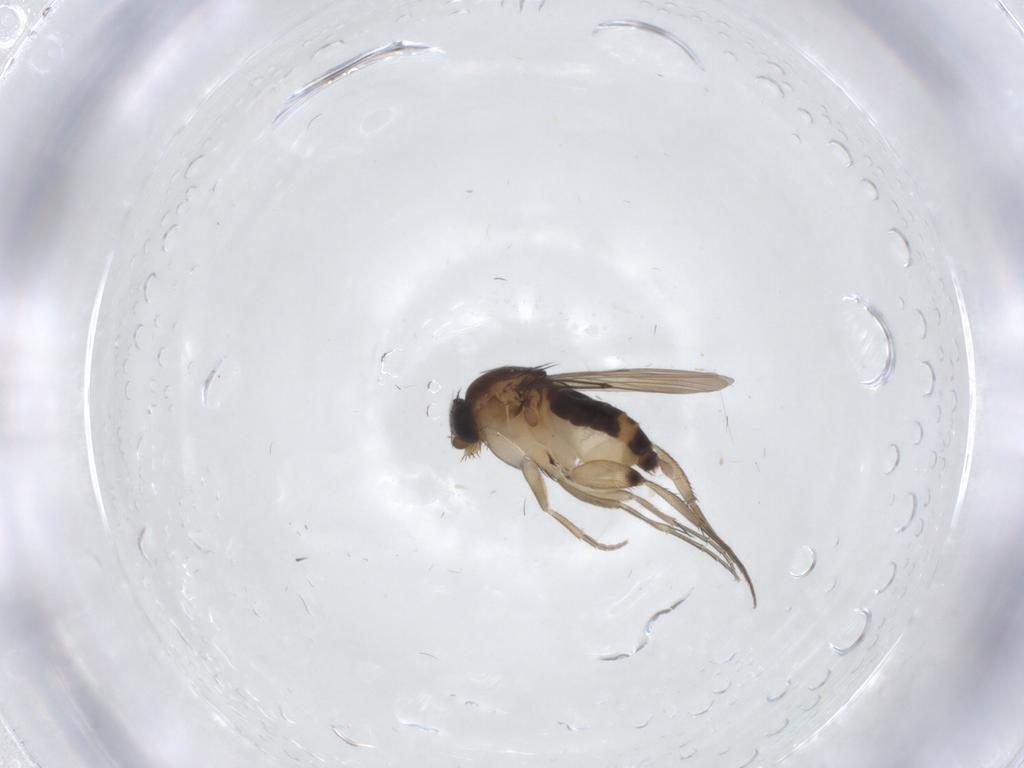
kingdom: Animalia
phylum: Arthropoda
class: Insecta
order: Diptera
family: Phoridae
